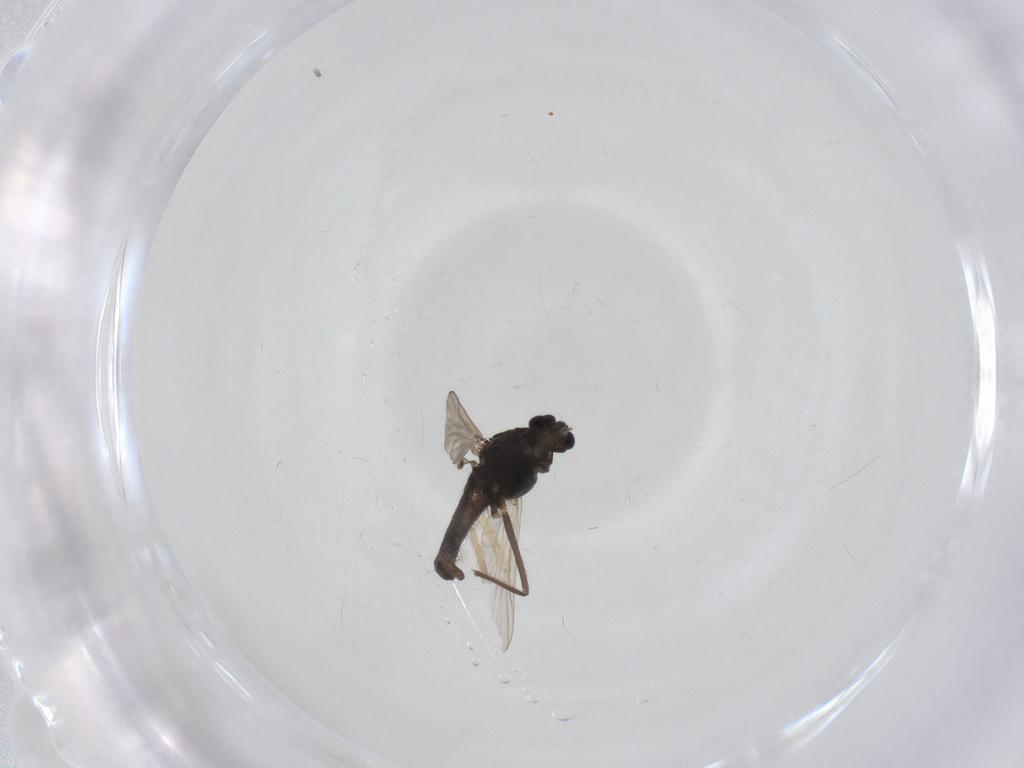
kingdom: Animalia
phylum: Arthropoda
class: Insecta
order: Diptera
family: Chironomidae
